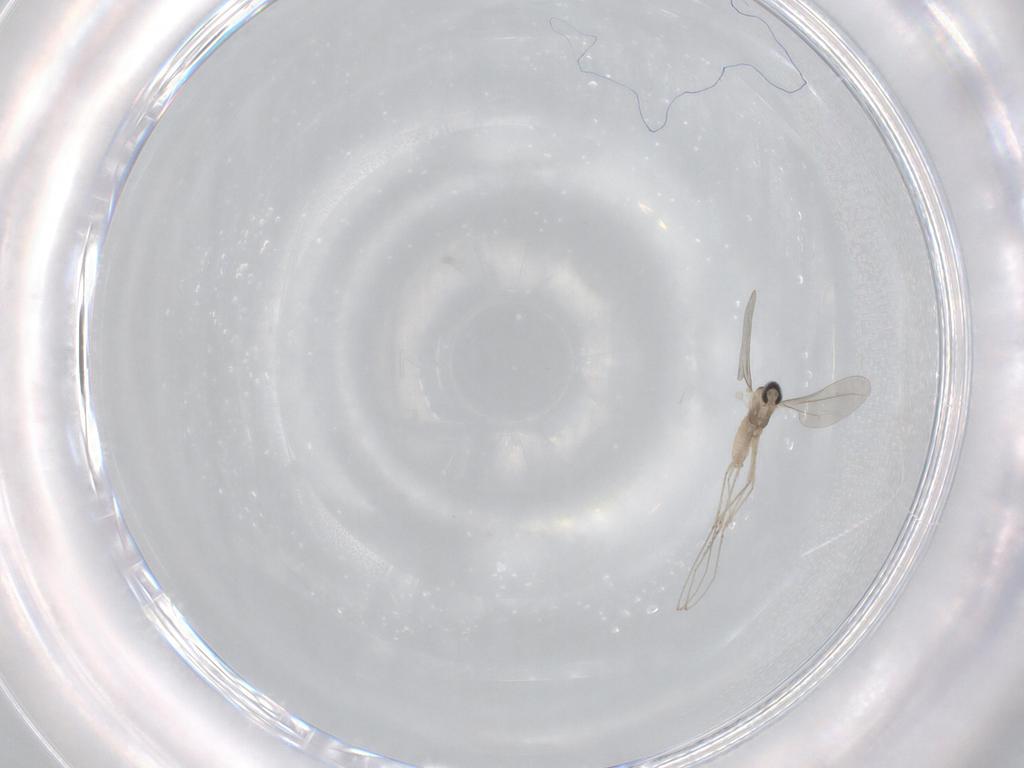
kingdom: Animalia
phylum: Arthropoda
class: Insecta
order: Diptera
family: Cecidomyiidae
